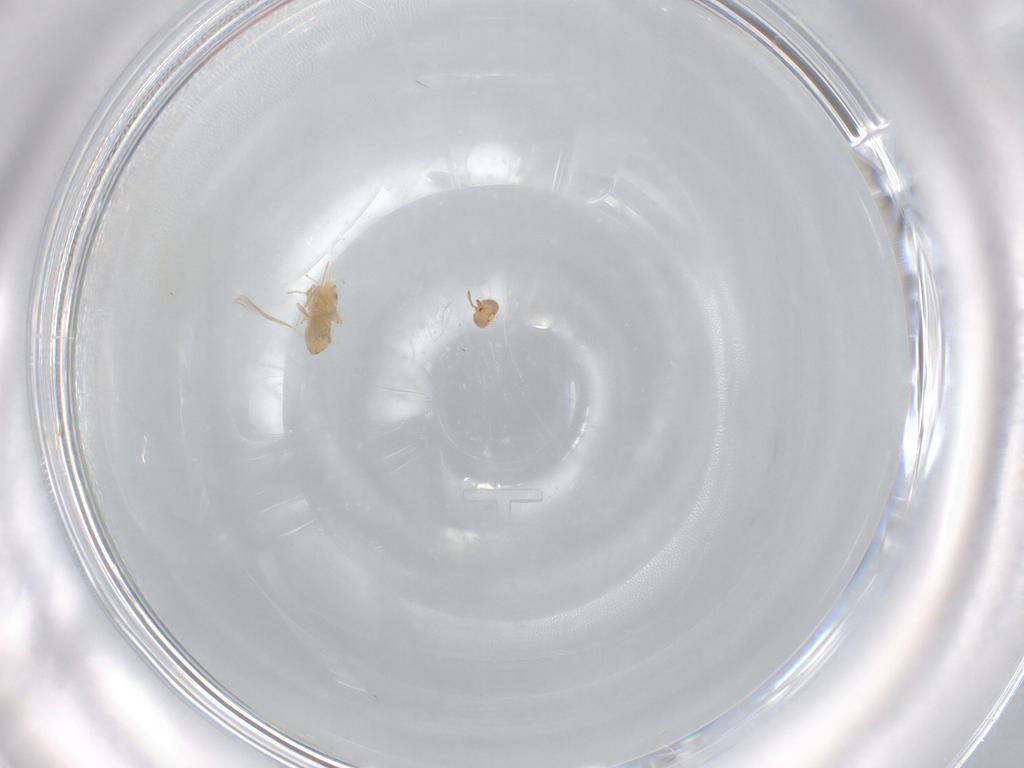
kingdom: Animalia
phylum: Arthropoda
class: Insecta
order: Hymenoptera
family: Aphelinidae
